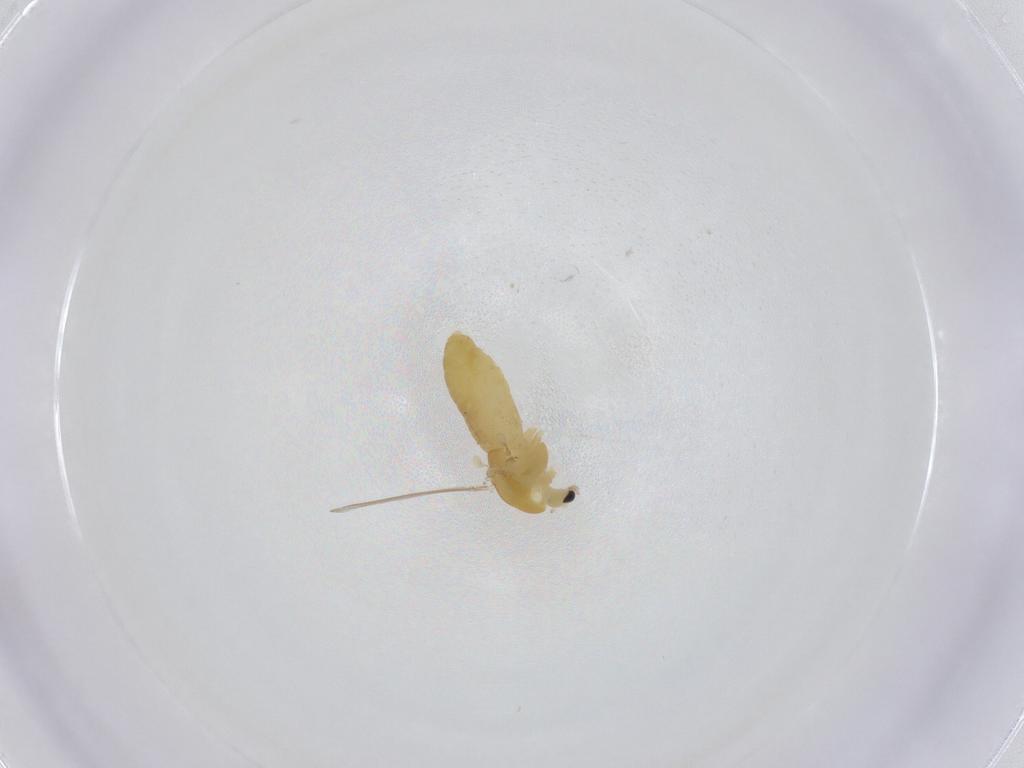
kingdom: Animalia
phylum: Arthropoda
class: Insecta
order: Diptera
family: Chironomidae
